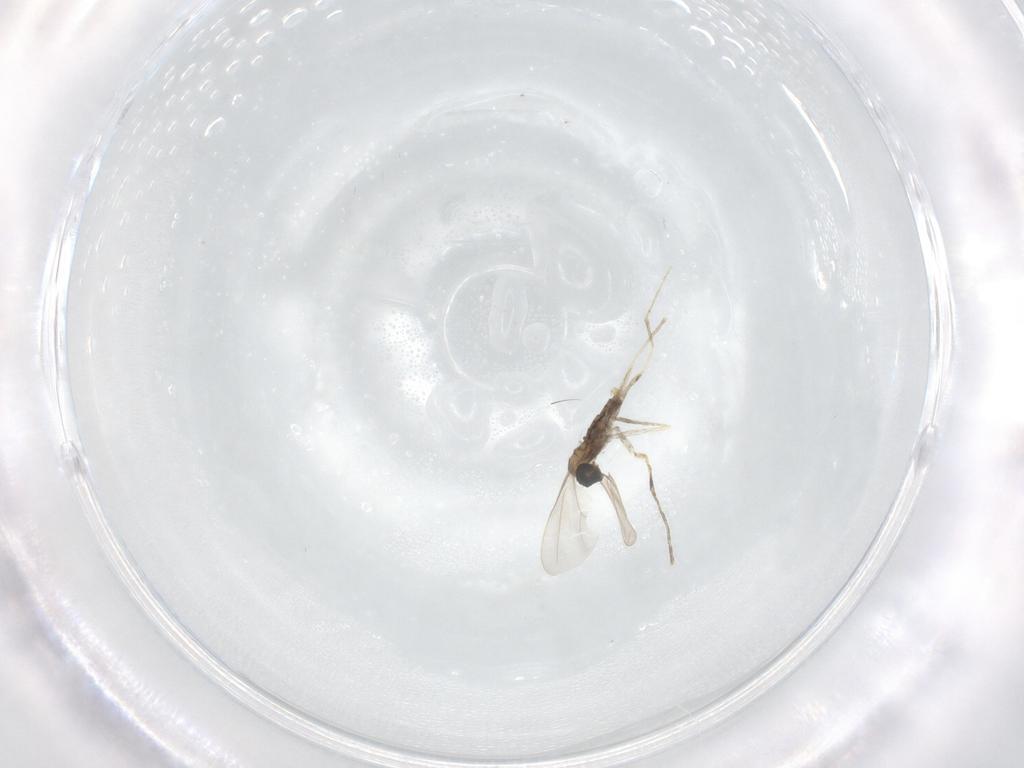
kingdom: Animalia
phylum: Arthropoda
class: Insecta
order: Diptera
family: Cecidomyiidae
